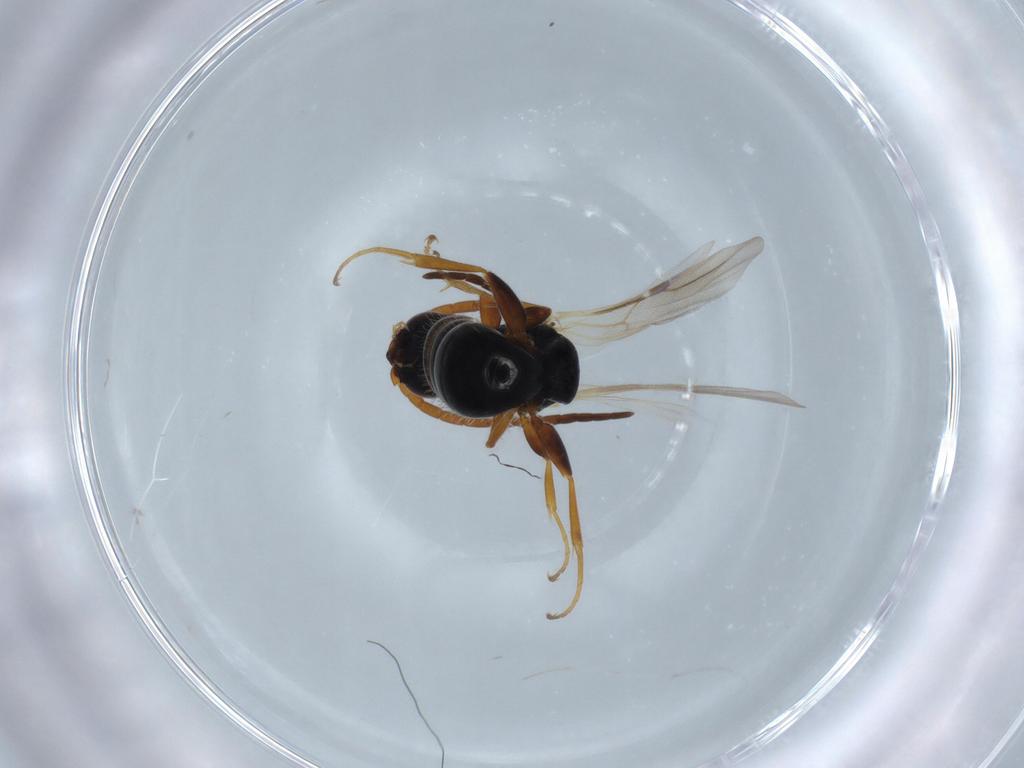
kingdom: Animalia
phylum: Arthropoda
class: Insecta
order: Hymenoptera
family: Bethylidae
